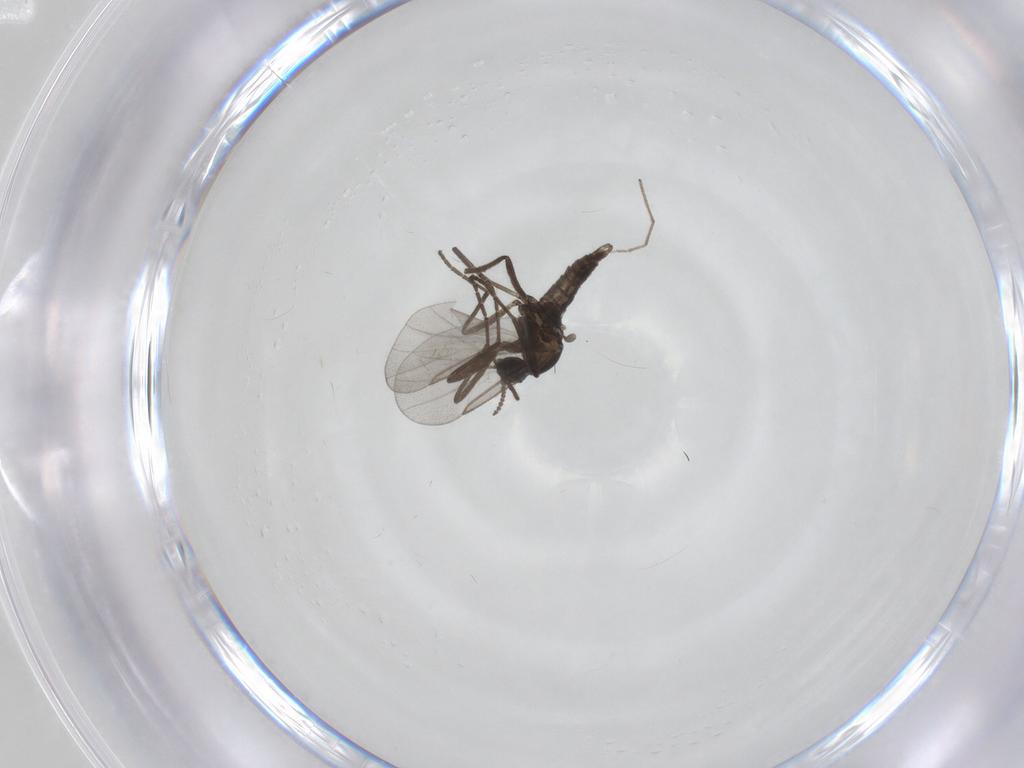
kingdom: Animalia
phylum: Arthropoda
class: Insecta
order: Diptera
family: Cecidomyiidae
